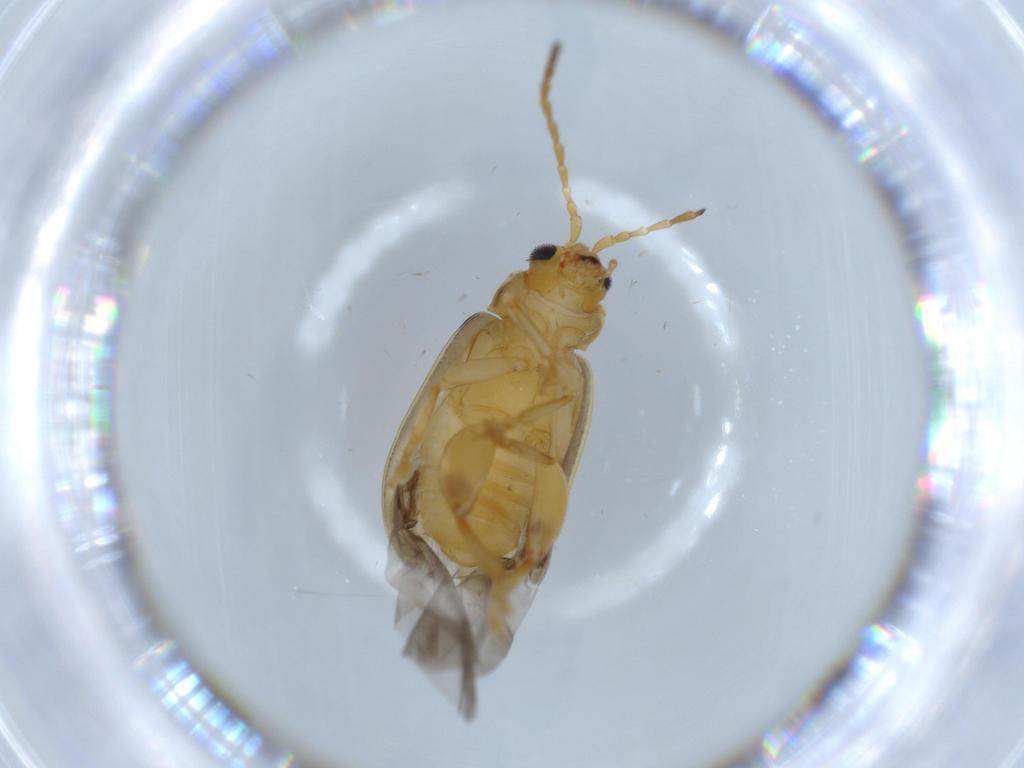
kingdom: Animalia
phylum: Arthropoda
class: Insecta
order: Coleoptera
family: Chrysomelidae
